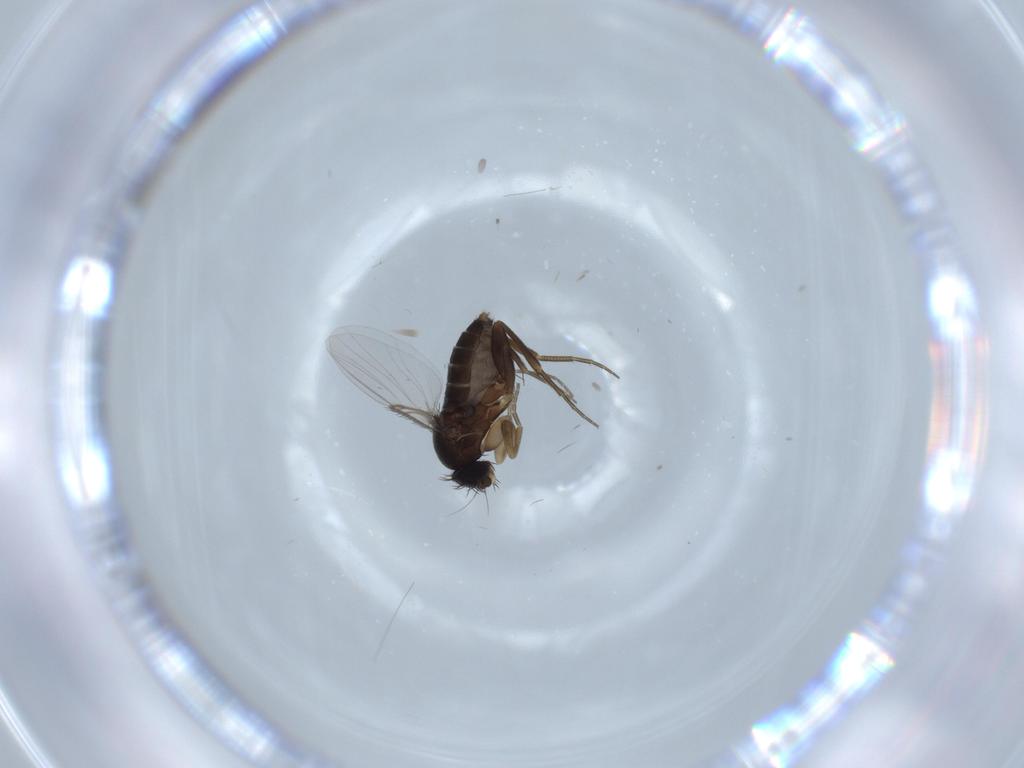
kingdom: Animalia
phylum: Arthropoda
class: Insecta
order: Diptera
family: Phoridae
